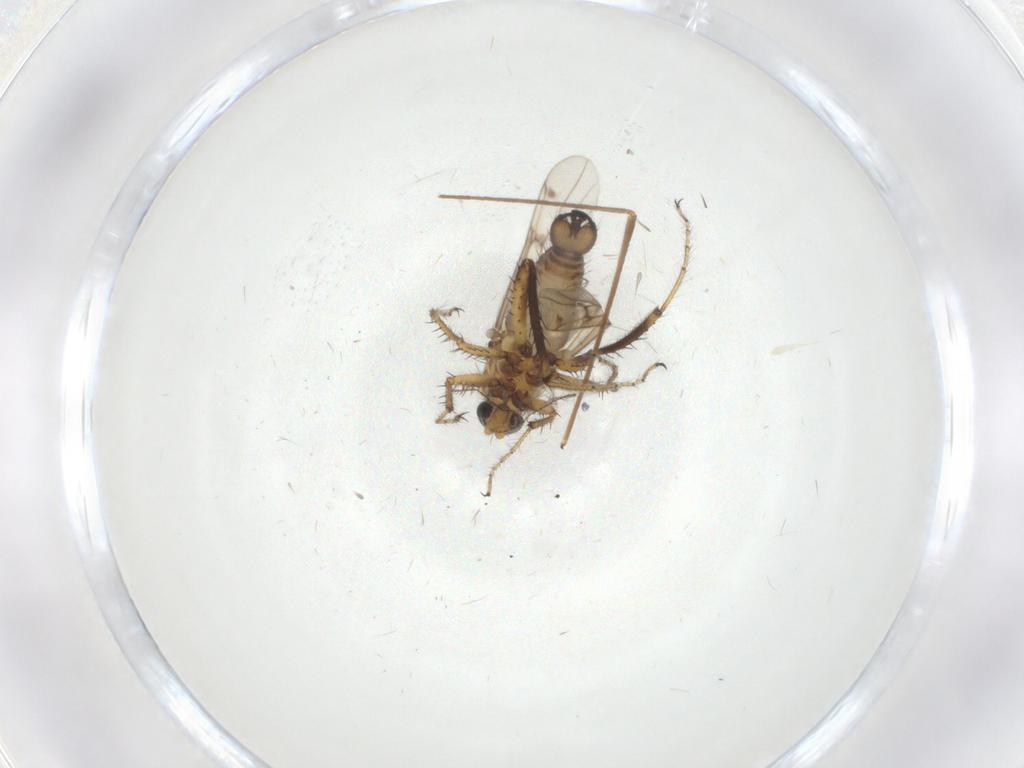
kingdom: Animalia
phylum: Arthropoda
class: Insecta
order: Diptera
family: Ceratopogonidae
